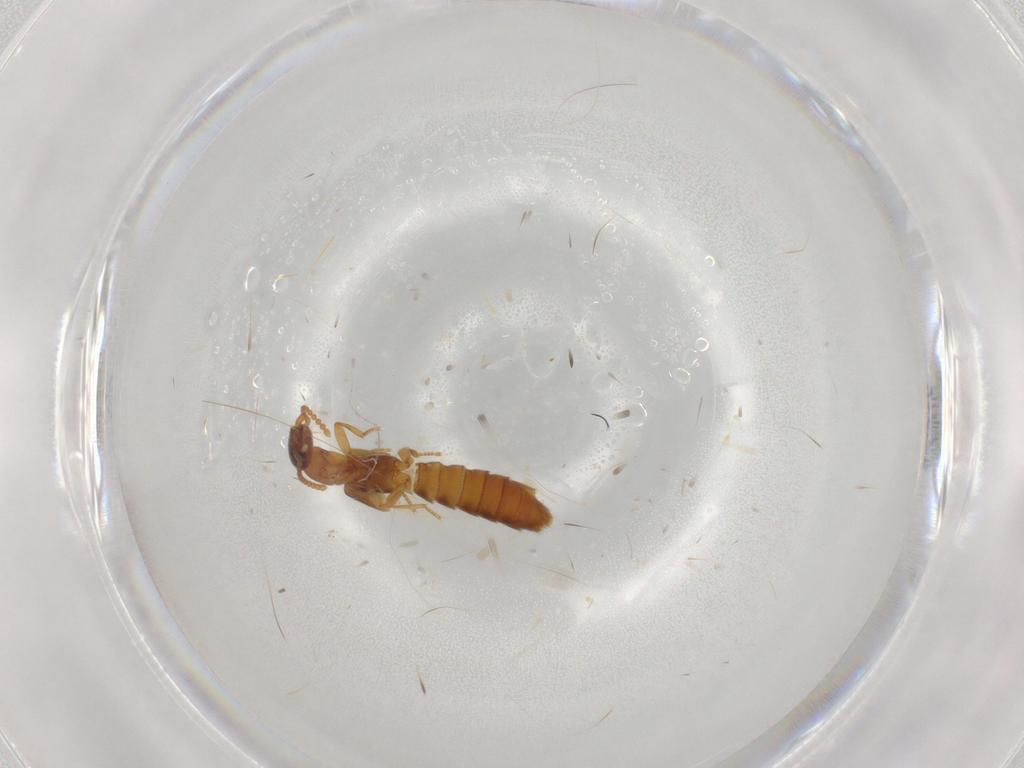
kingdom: Animalia
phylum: Arthropoda
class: Insecta
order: Coleoptera
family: Staphylinidae
